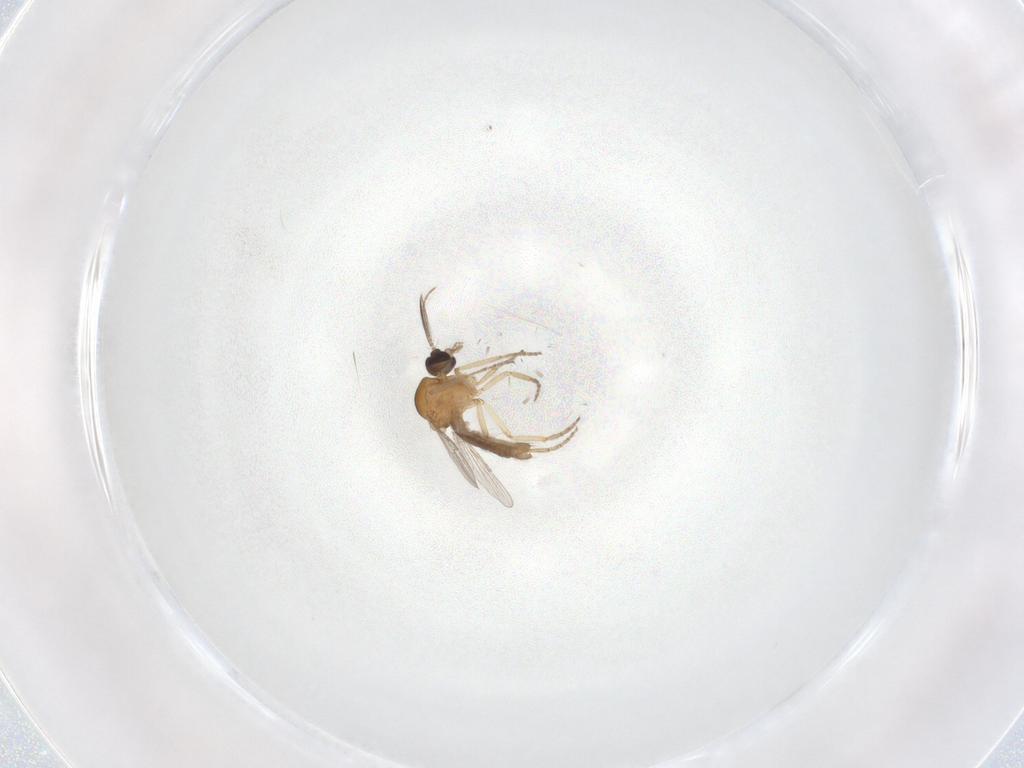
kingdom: Animalia
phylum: Arthropoda
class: Insecta
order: Diptera
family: Ceratopogonidae
